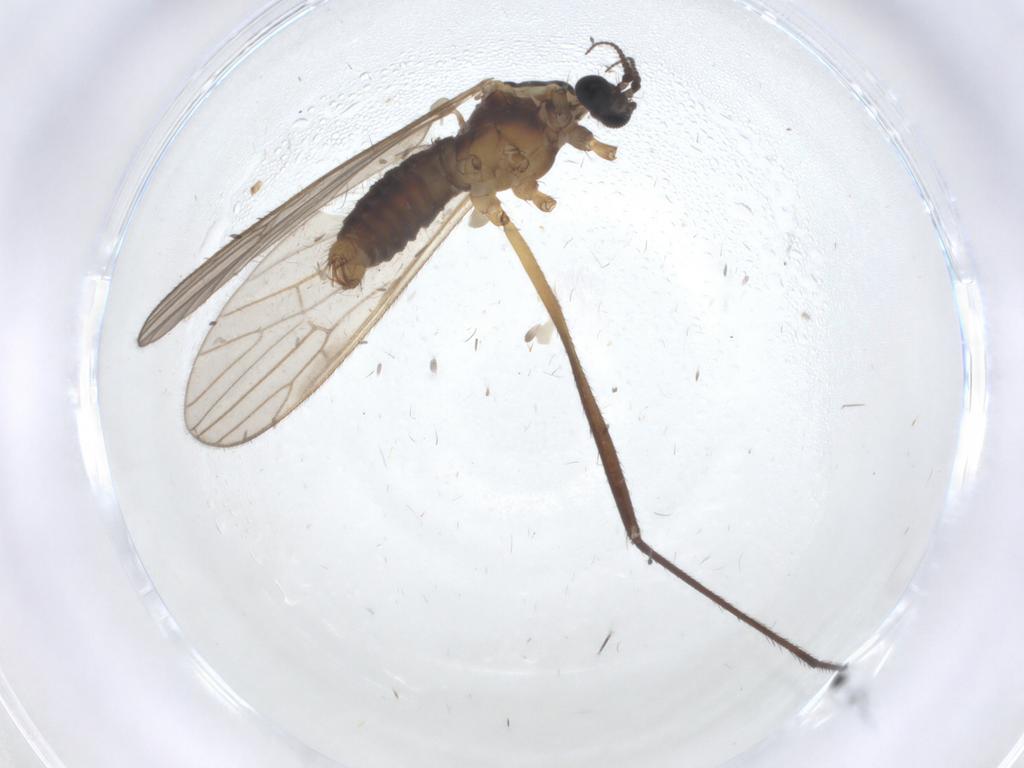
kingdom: Animalia
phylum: Arthropoda
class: Insecta
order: Diptera
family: Agromyzidae
